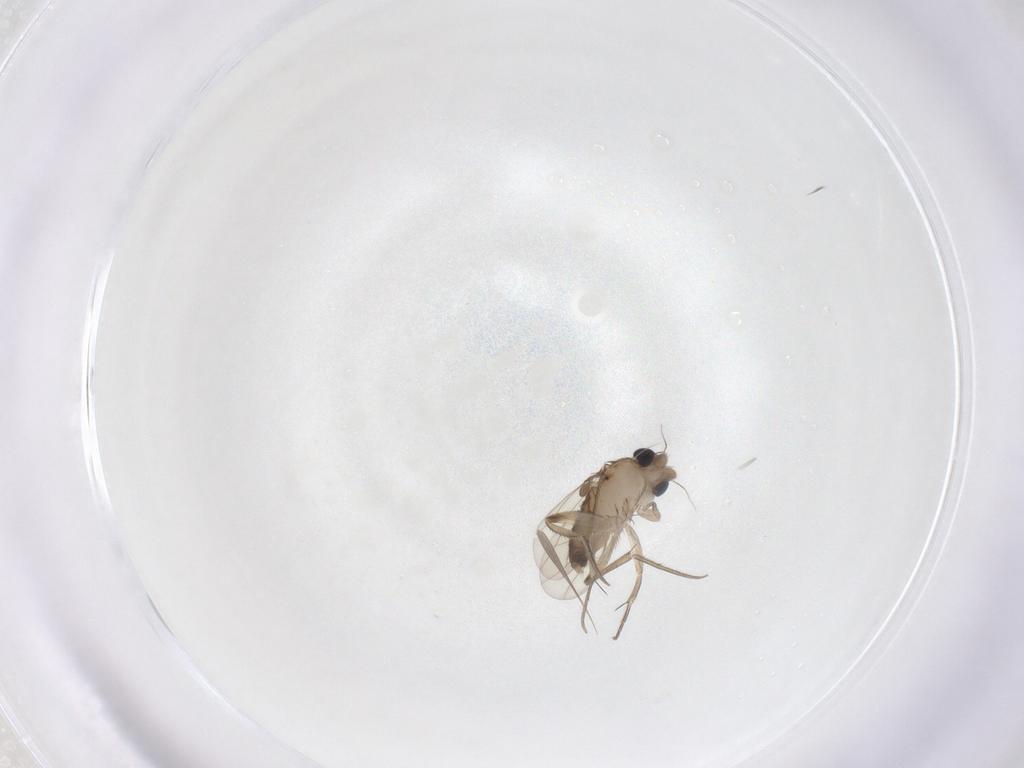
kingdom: Animalia
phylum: Arthropoda
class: Insecta
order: Diptera
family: Phoridae
